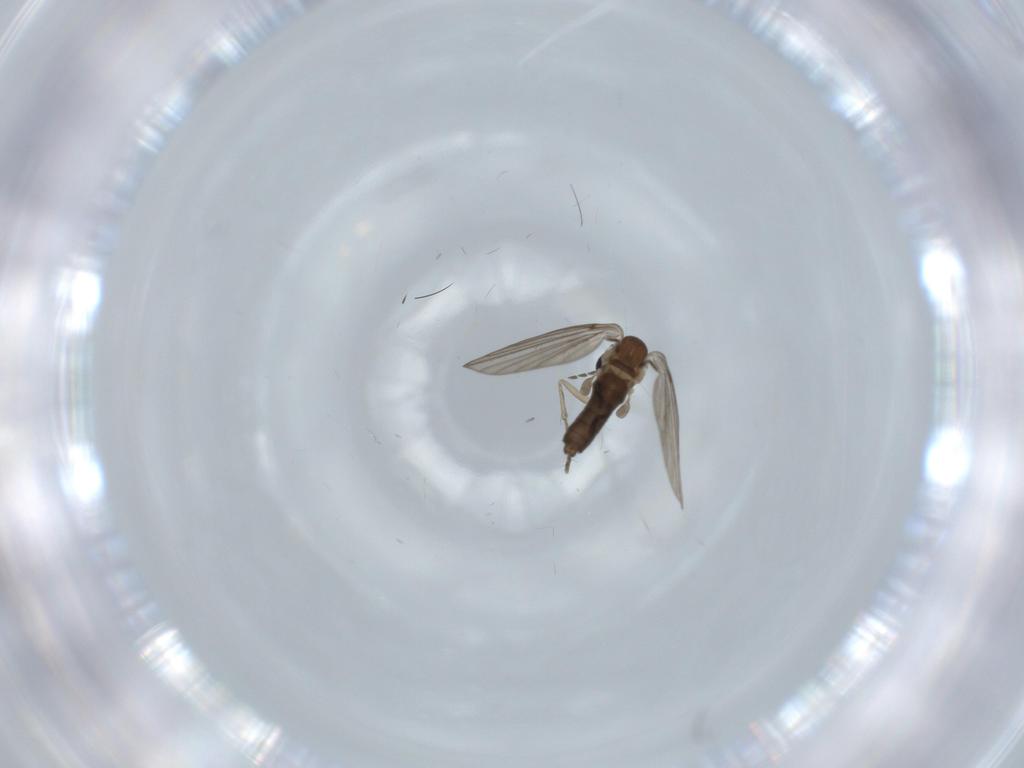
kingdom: Animalia
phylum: Arthropoda
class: Insecta
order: Diptera
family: Psychodidae
